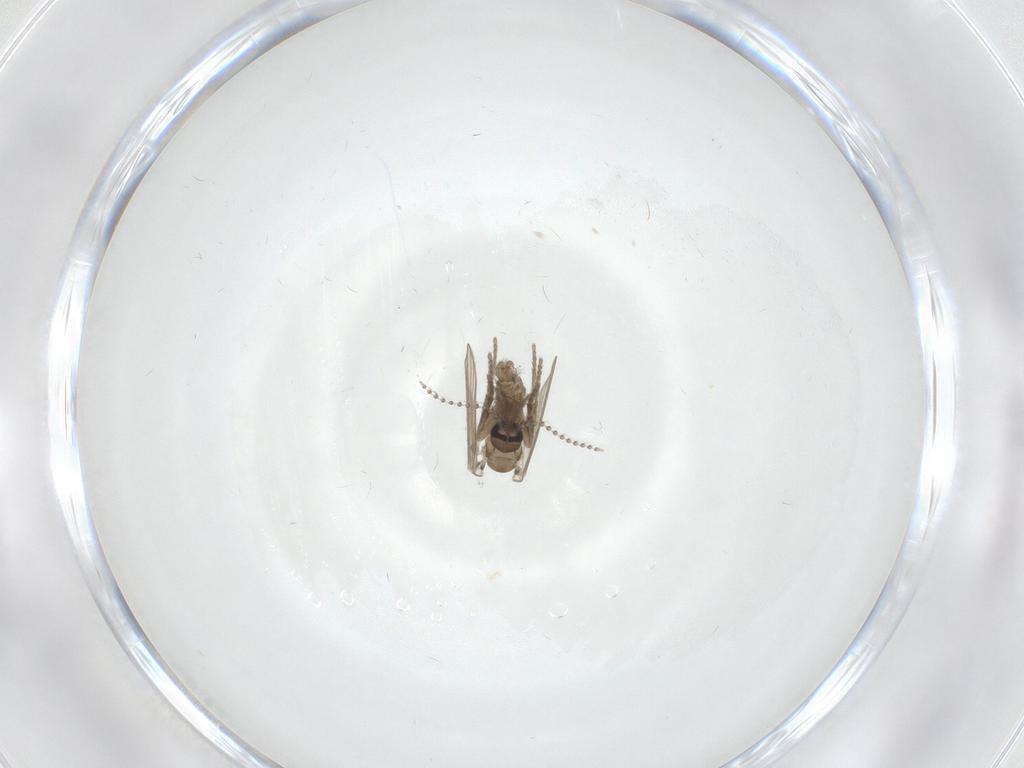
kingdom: Animalia
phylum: Arthropoda
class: Insecta
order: Diptera
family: Psychodidae
